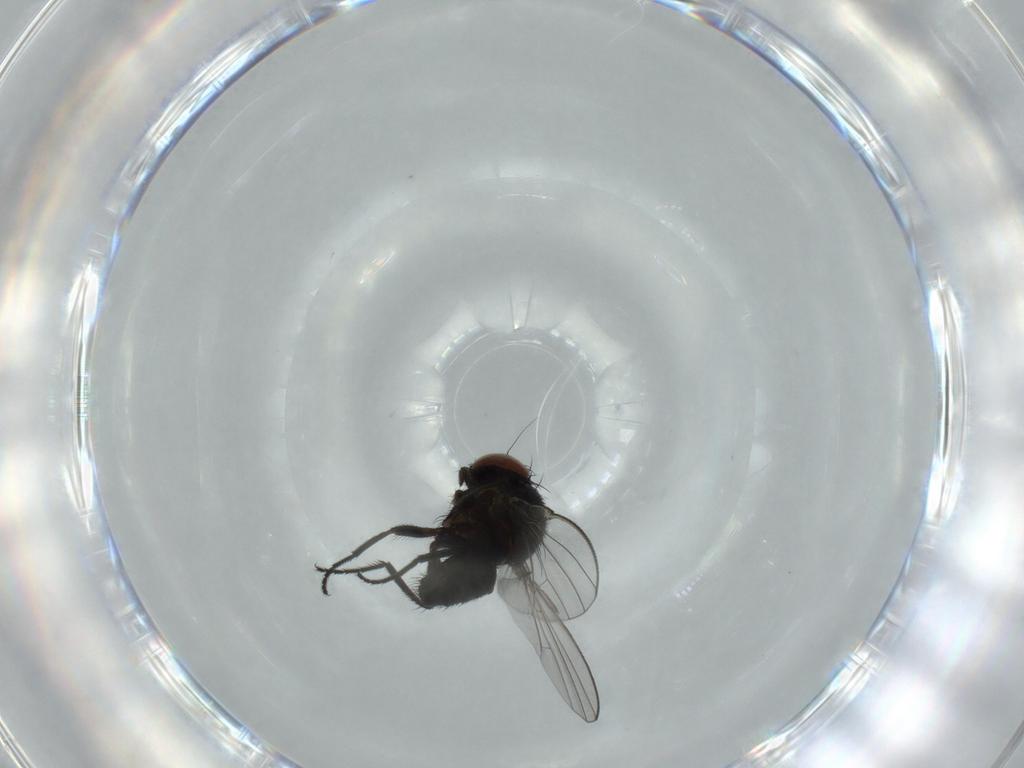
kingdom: Animalia
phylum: Arthropoda
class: Insecta
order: Diptera
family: Milichiidae
